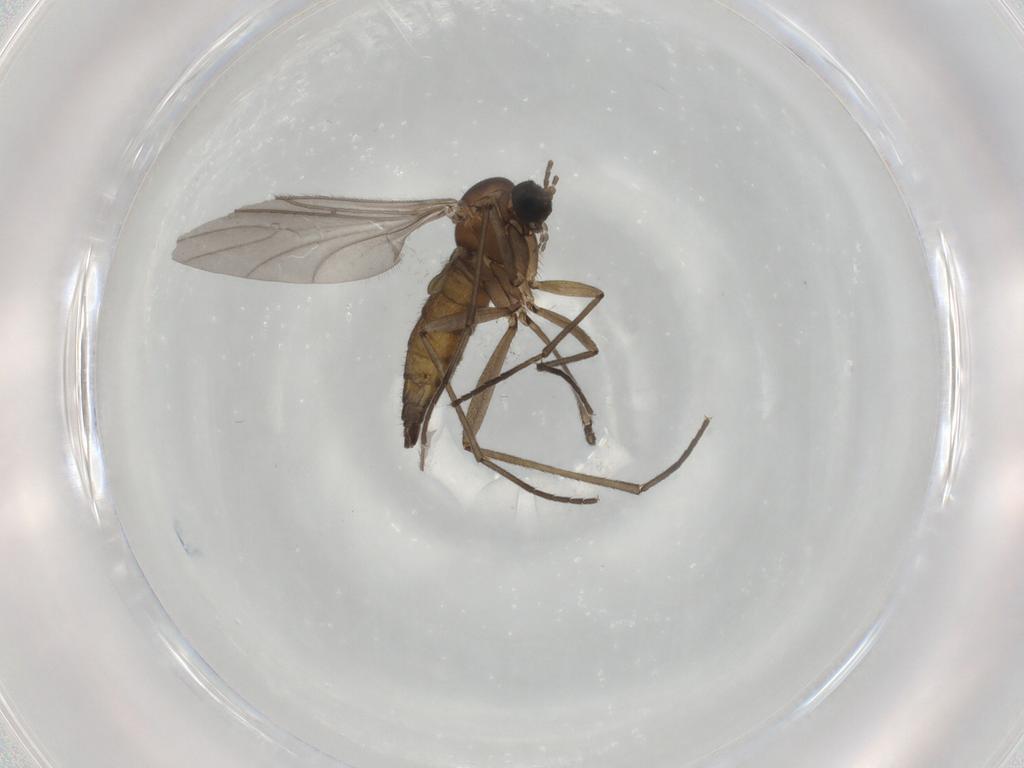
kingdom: Animalia
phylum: Arthropoda
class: Insecta
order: Diptera
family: Sciaridae
